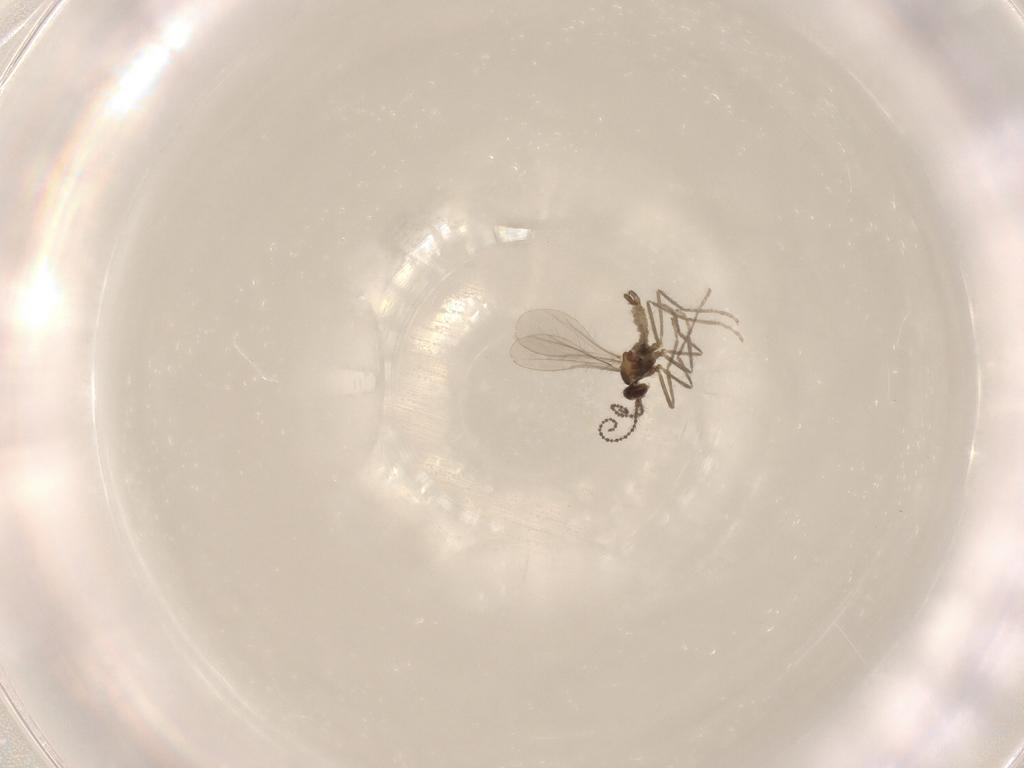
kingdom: Animalia
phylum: Arthropoda
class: Insecta
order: Diptera
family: Cecidomyiidae
